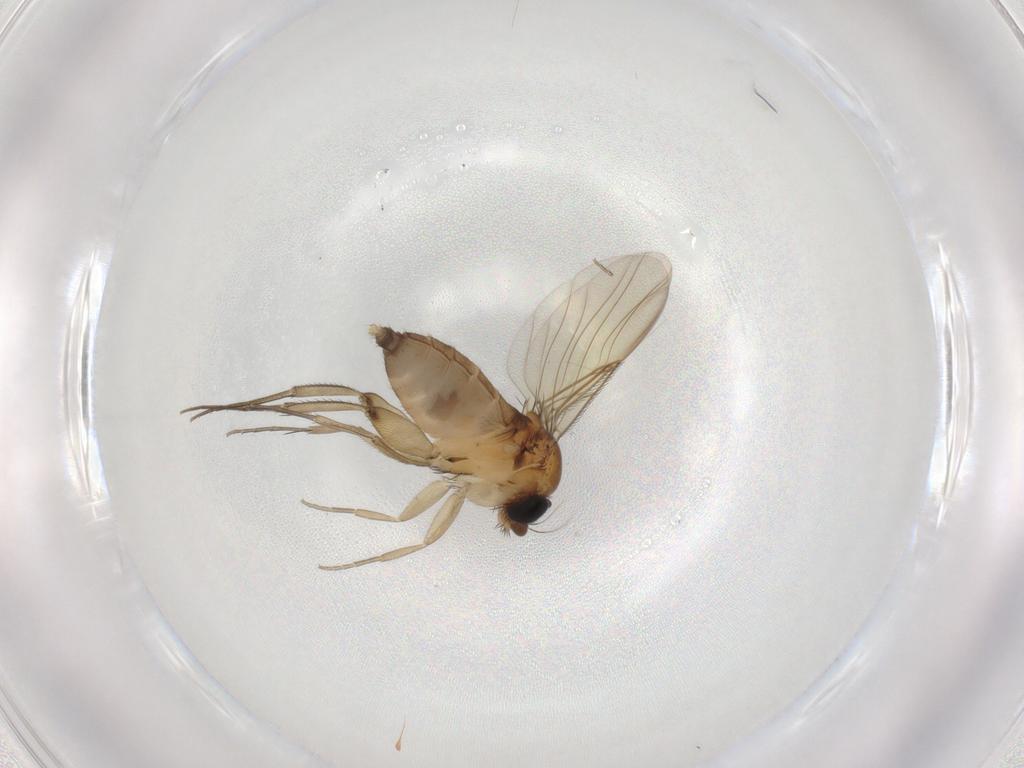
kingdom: Animalia
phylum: Arthropoda
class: Insecta
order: Diptera
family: Phoridae
